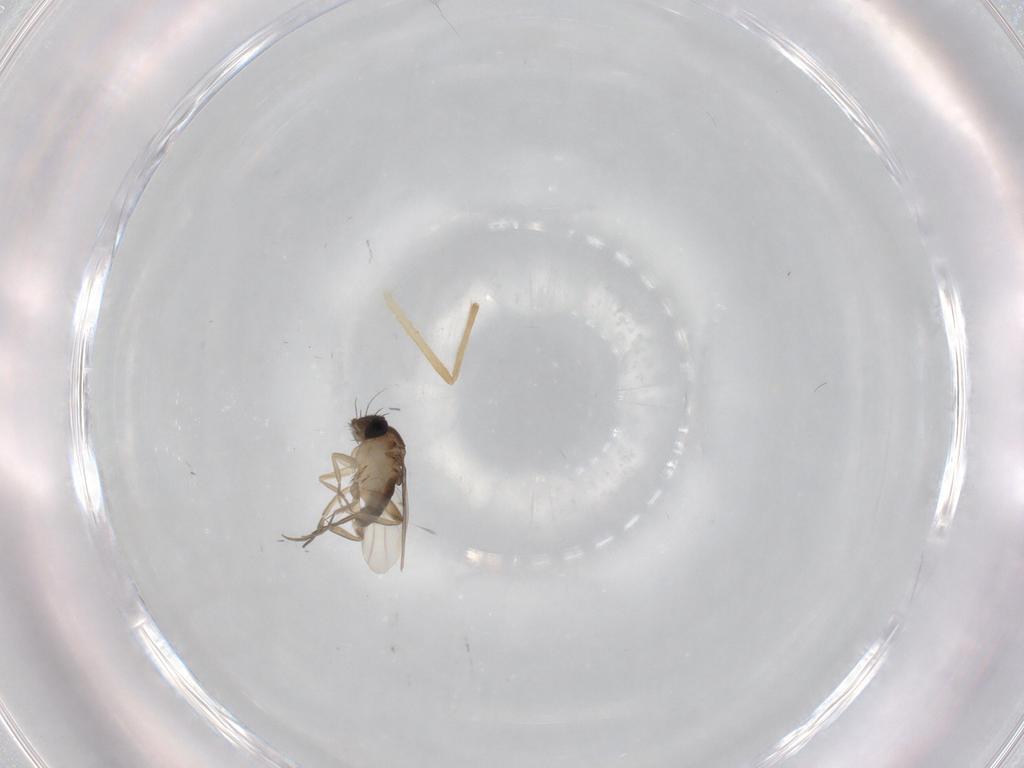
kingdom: Animalia
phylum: Arthropoda
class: Insecta
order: Diptera
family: Phoridae
